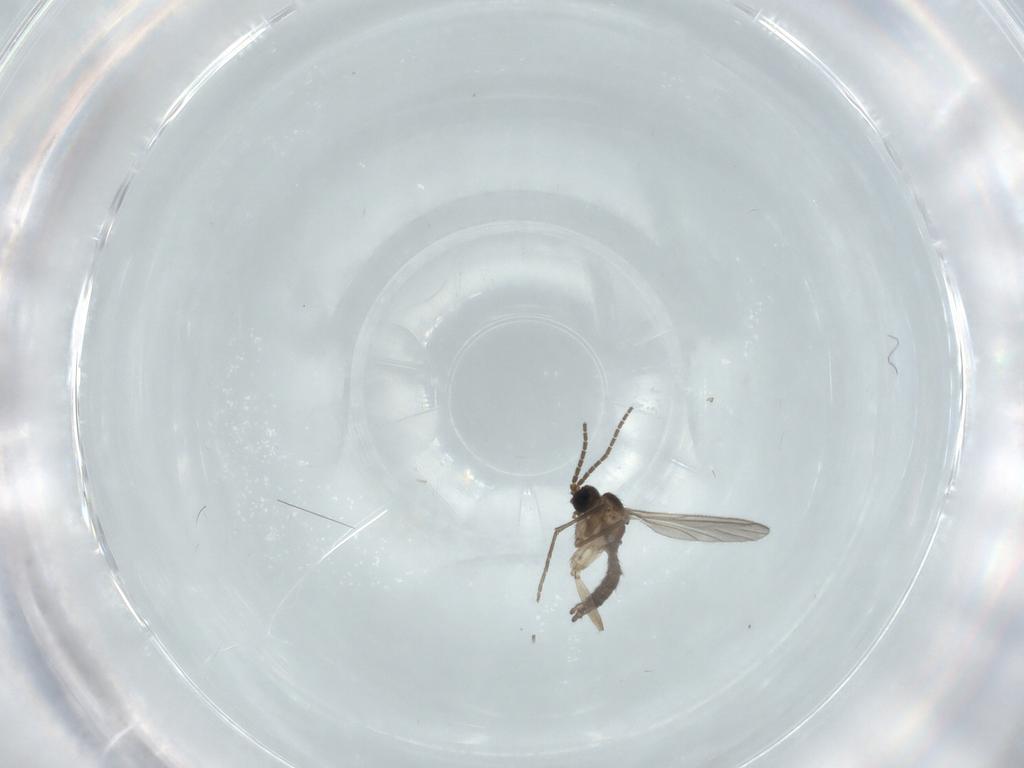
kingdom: Animalia
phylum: Arthropoda
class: Insecta
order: Diptera
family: Sciaridae
